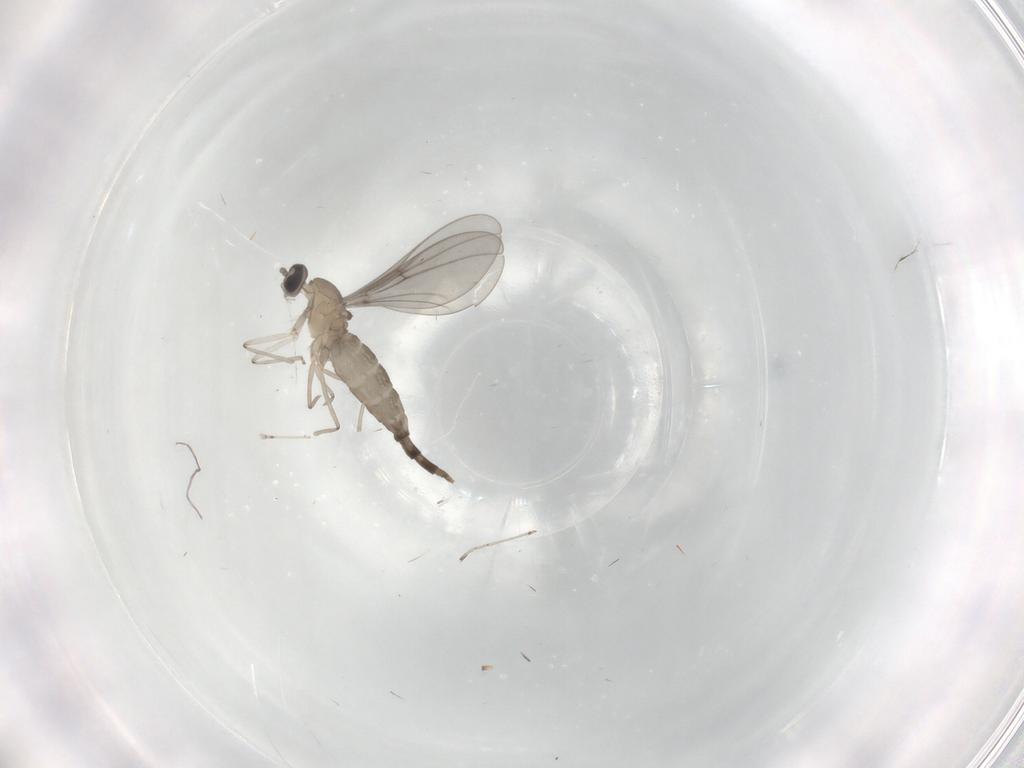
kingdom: Animalia
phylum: Arthropoda
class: Insecta
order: Diptera
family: Cecidomyiidae
